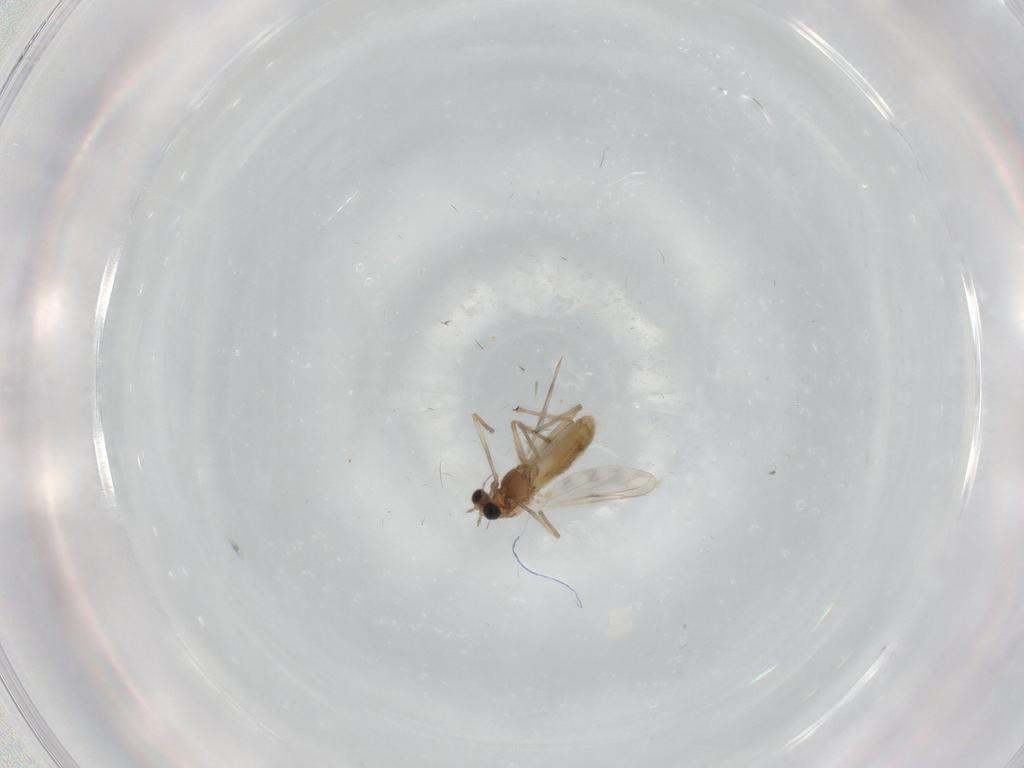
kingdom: Animalia
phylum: Arthropoda
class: Insecta
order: Diptera
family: Chironomidae
